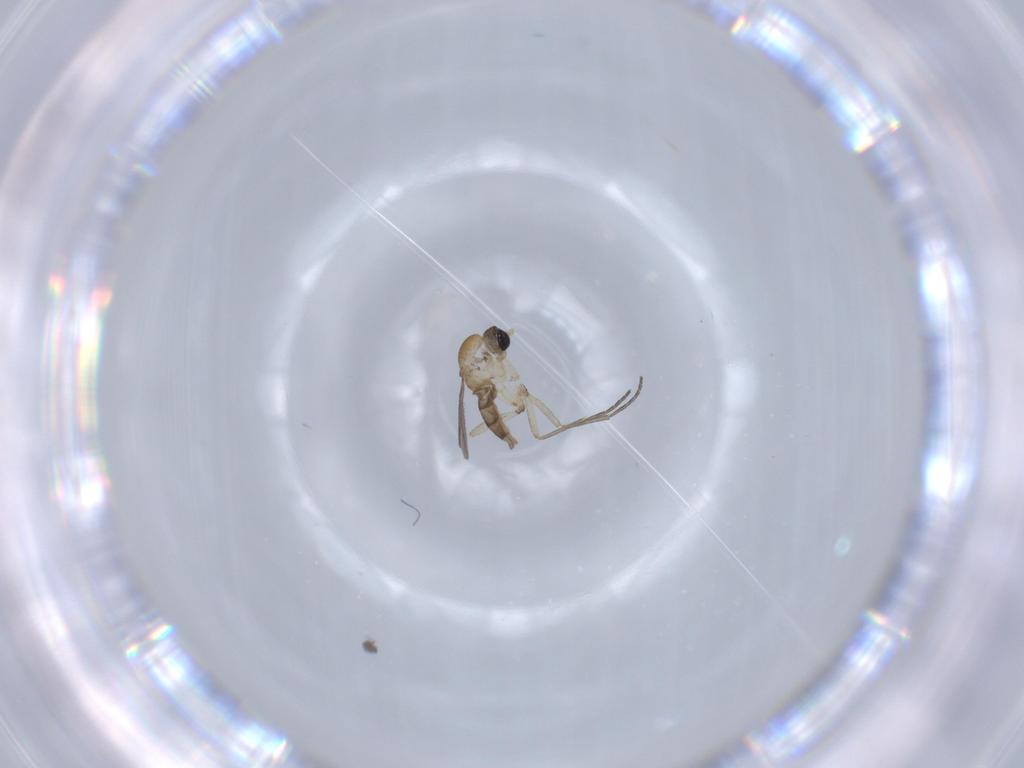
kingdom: Animalia
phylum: Arthropoda
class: Insecta
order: Diptera
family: Sciaridae
